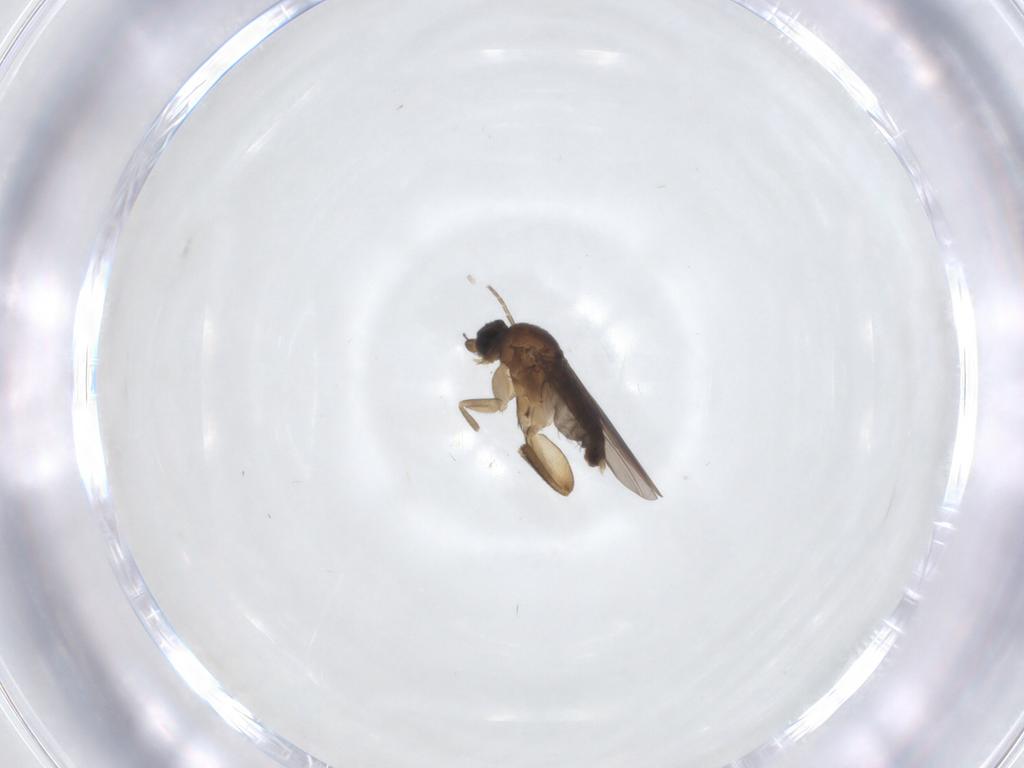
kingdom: Animalia
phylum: Arthropoda
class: Insecta
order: Diptera
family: Phoridae
